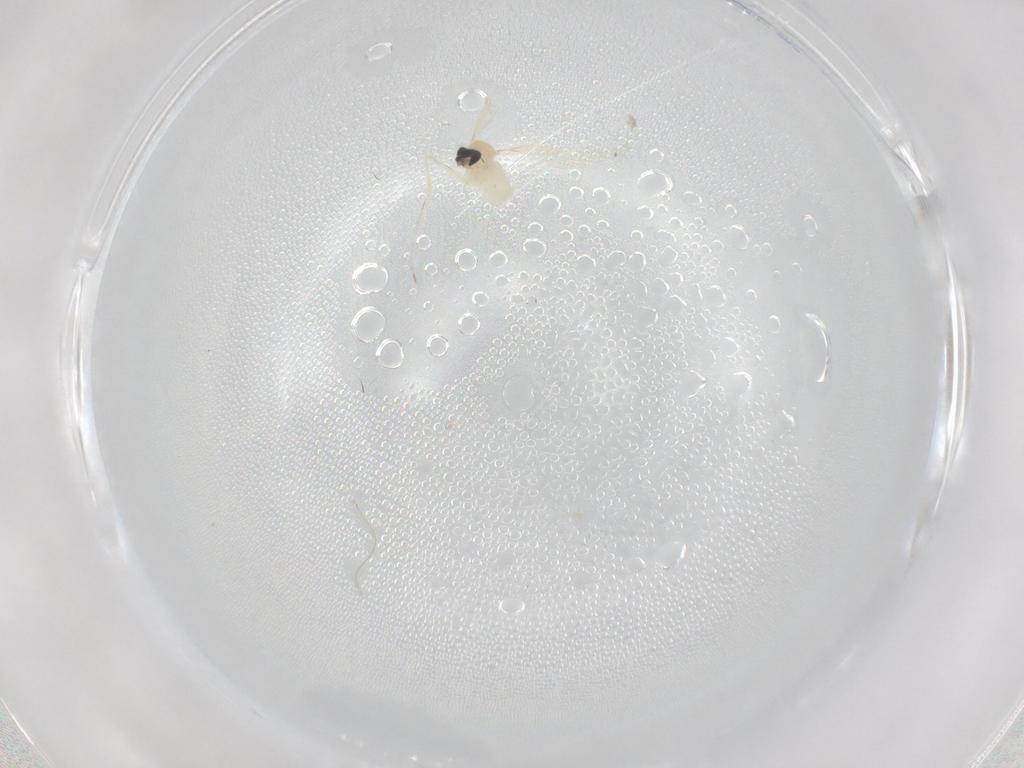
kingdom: Animalia
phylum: Arthropoda
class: Insecta
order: Diptera
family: Cecidomyiidae
